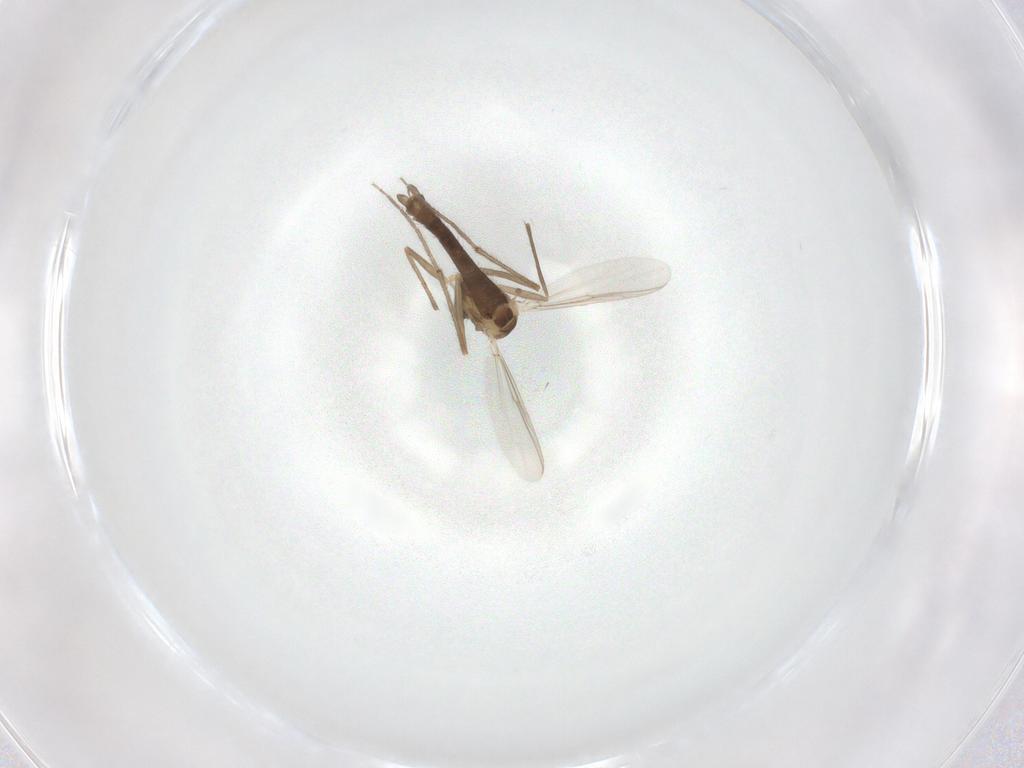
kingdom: Animalia
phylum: Arthropoda
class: Insecta
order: Diptera
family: Chironomidae
